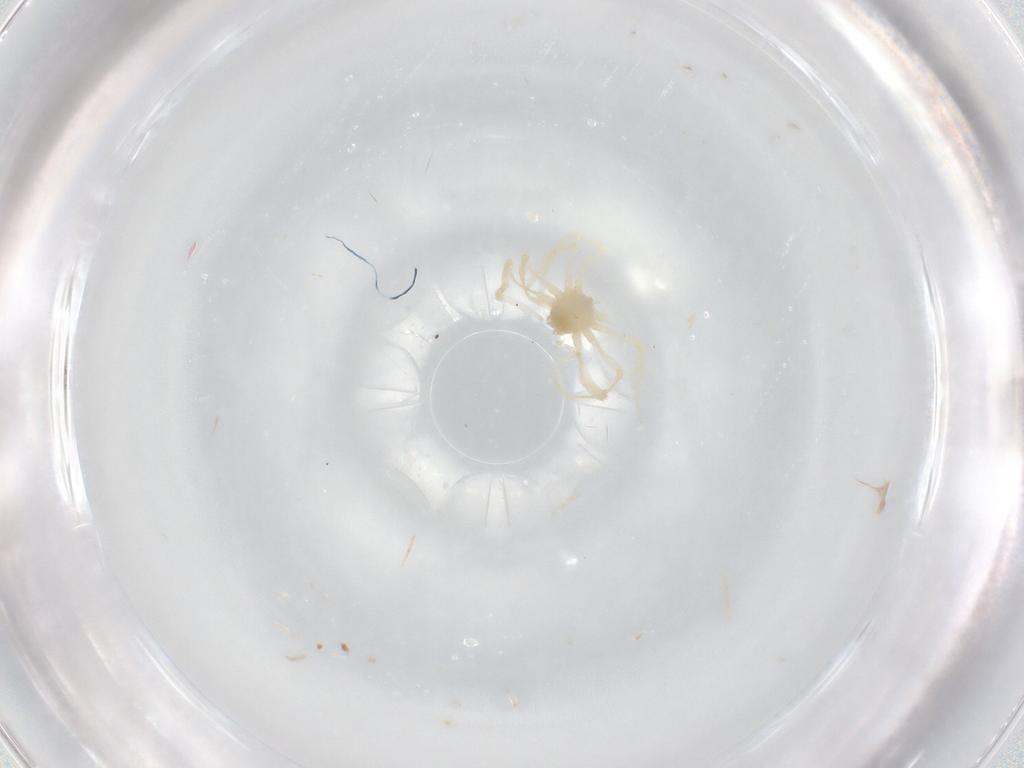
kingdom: Animalia
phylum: Arthropoda
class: Arachnida
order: Araneae
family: Pholcidae
